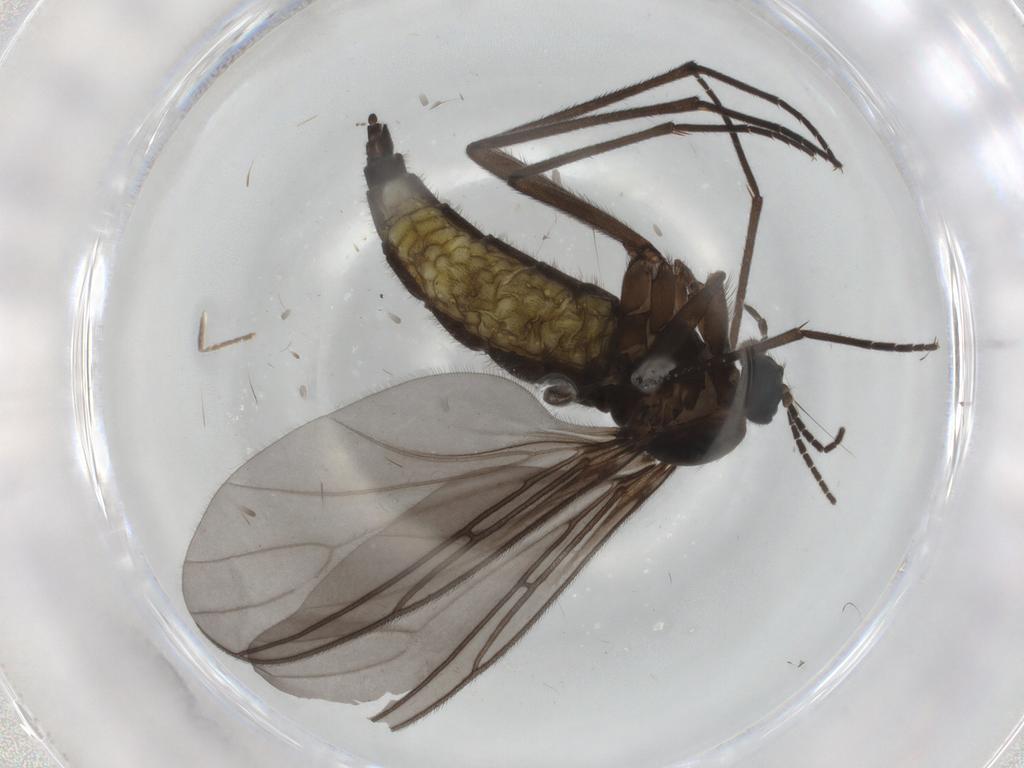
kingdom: Animalia
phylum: Arthropoda
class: Insecta
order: Diptera
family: Sciaridae
